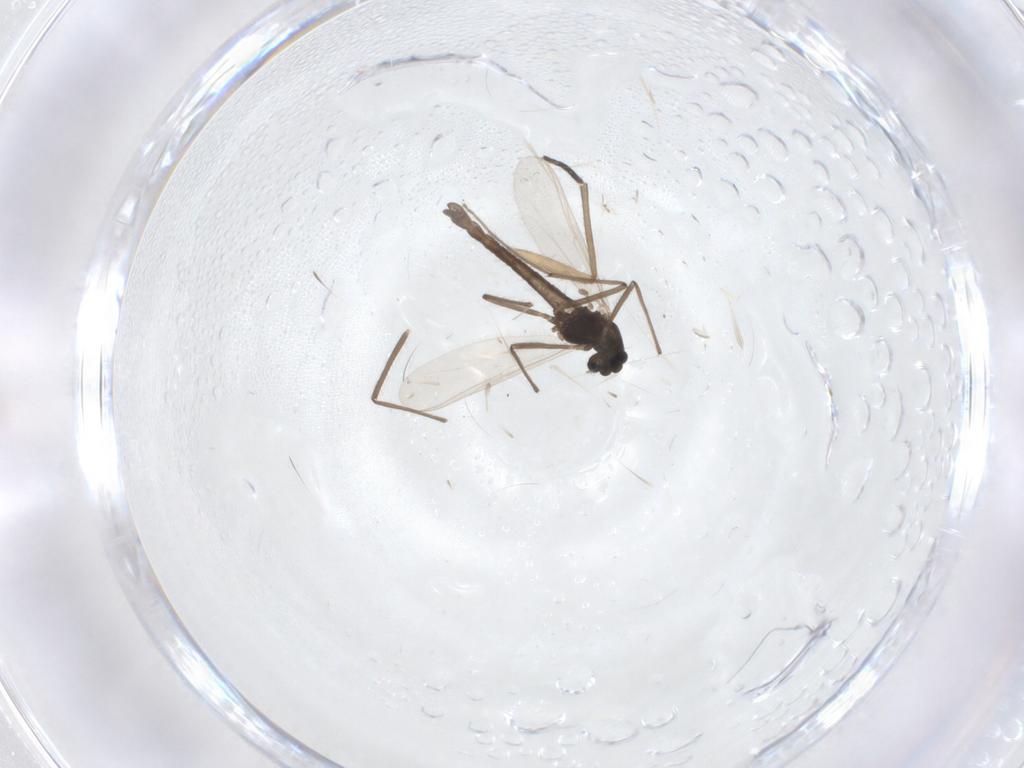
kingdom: Animalia
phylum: Arthropoda
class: Insecta
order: Diptera
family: Chironomidae
